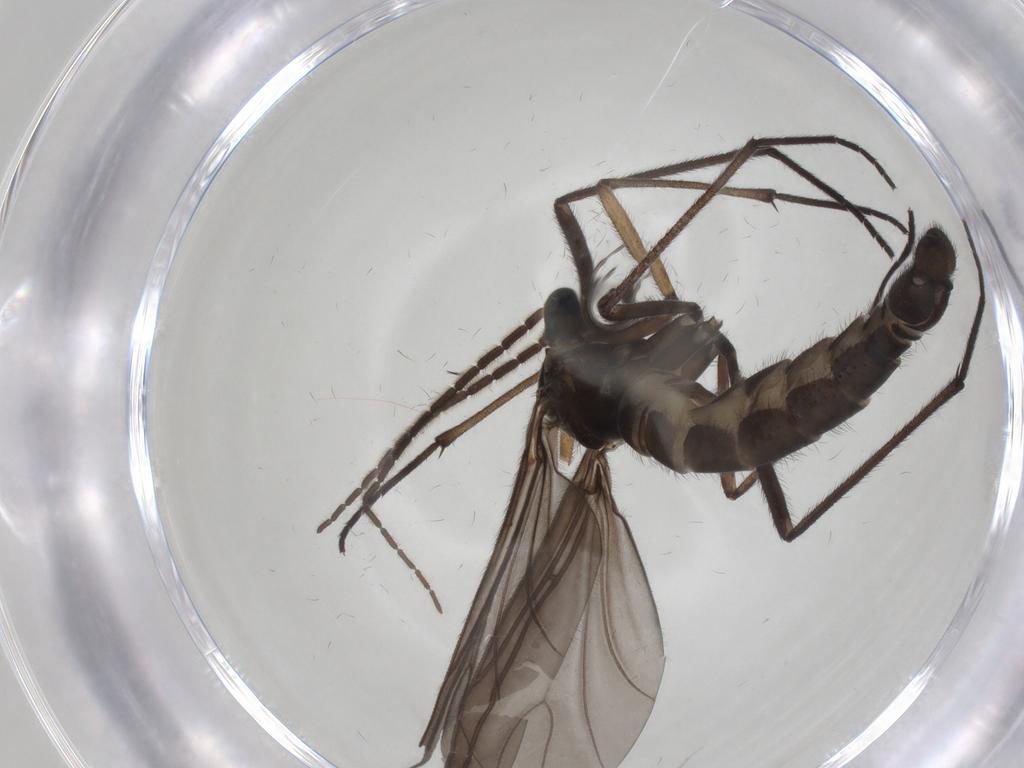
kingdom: Animalia
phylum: Arthropoda
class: Insecta
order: Diptera
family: Sciaridae
